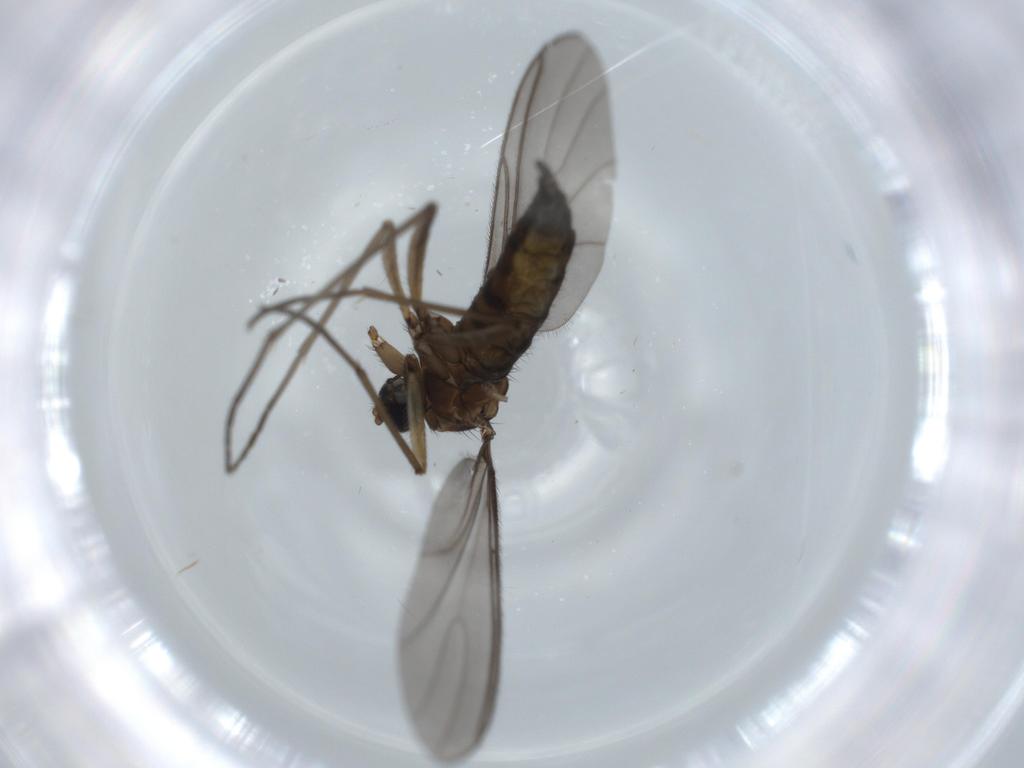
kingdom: Animalia
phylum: Arthropoda
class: Insecta
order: Diptera
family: Sciaridae
